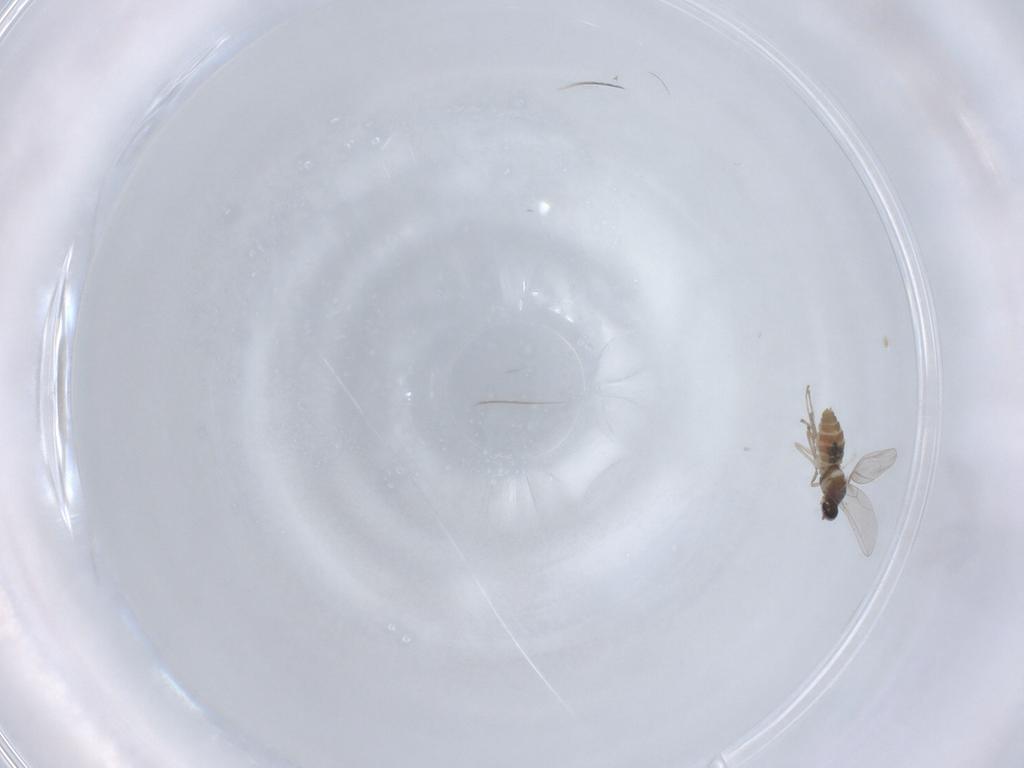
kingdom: Animalia
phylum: Arthropoda
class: Insecta
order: Diptera
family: Cecidomyiidae
